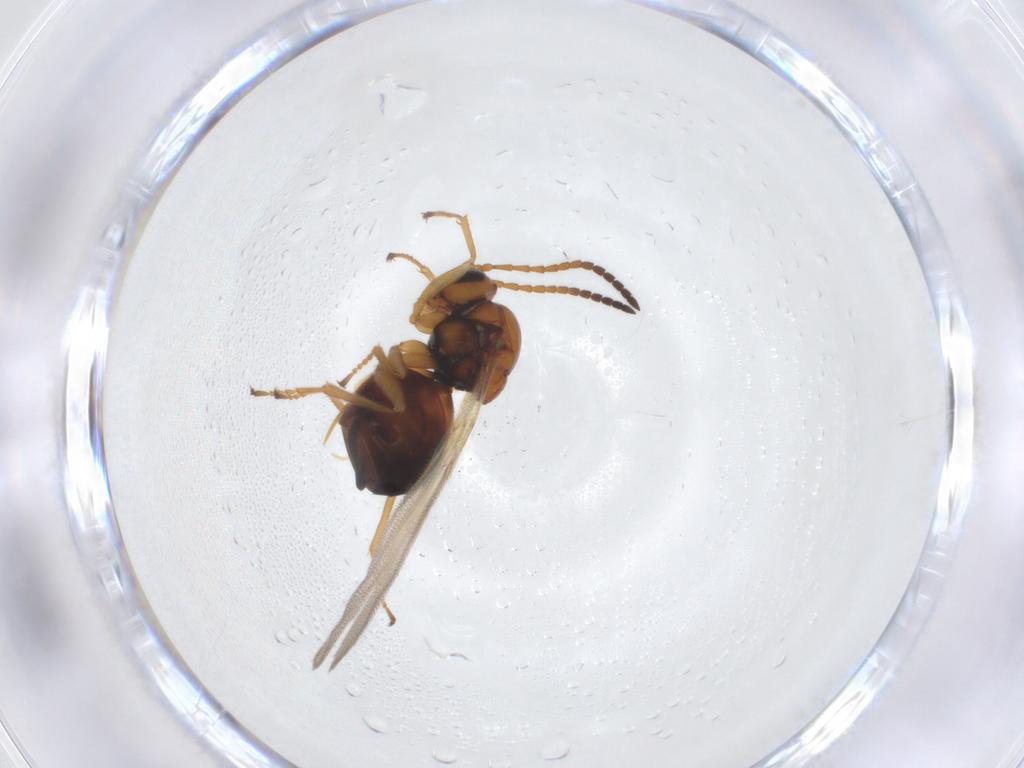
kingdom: Animalia
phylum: Arthropoda
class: Insecta
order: Hymenoptera
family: Cynipidae
